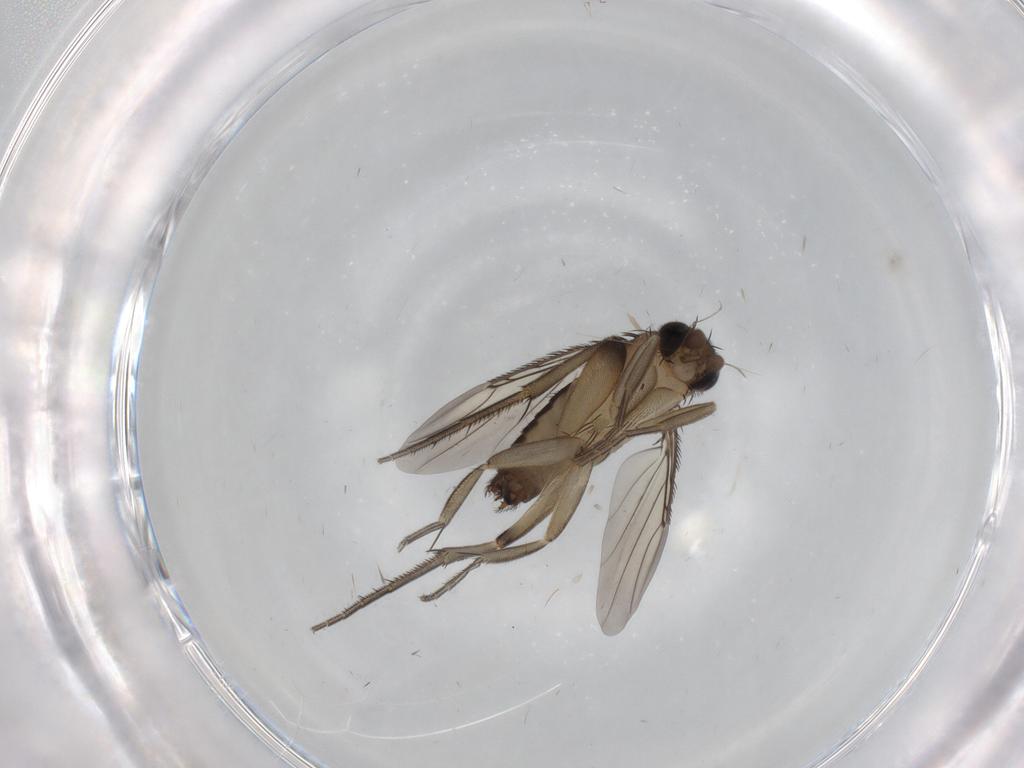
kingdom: Animalia
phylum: Arthropoda
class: Insecta
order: Diptera
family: Phoridae
